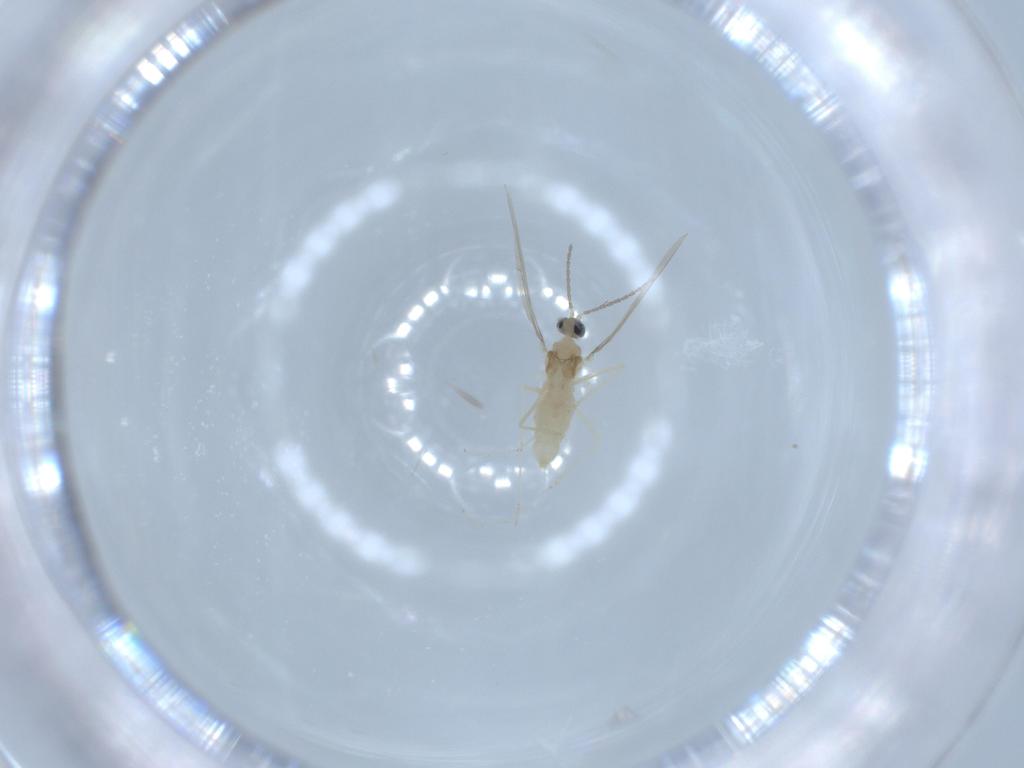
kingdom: Animalia
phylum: Arthropoda
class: Insecta
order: Diptera
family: Cecidomyiidae
